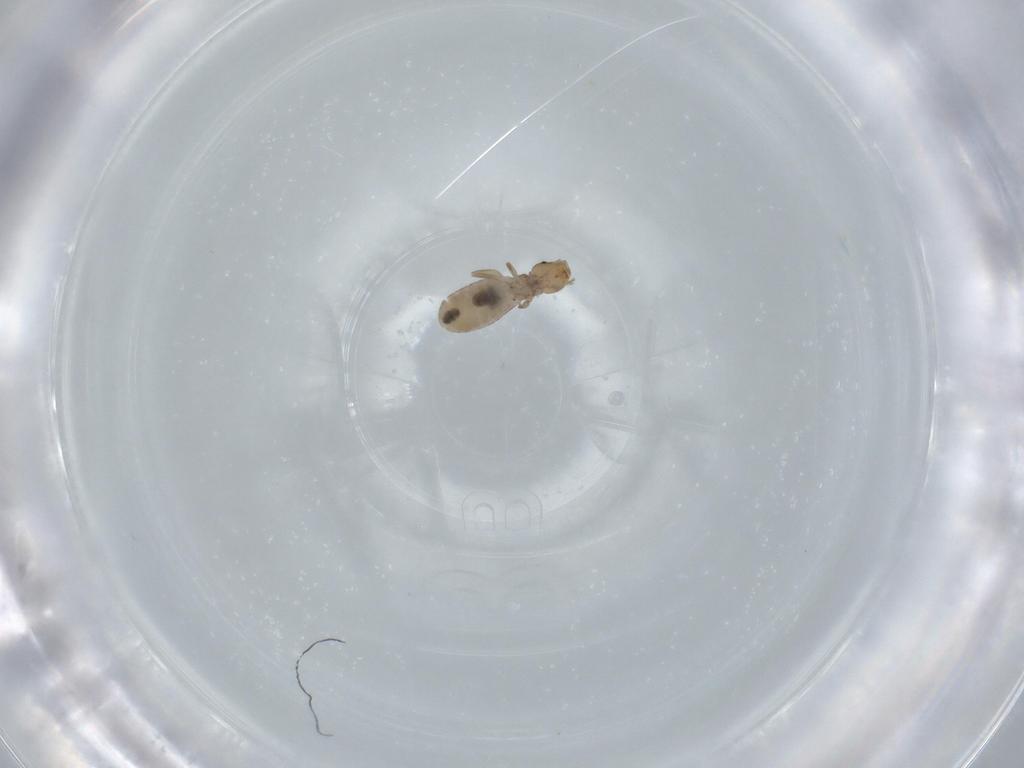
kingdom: Animalia
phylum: Arthropoda
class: Insecta
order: Psocodea
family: Liposcelididae
